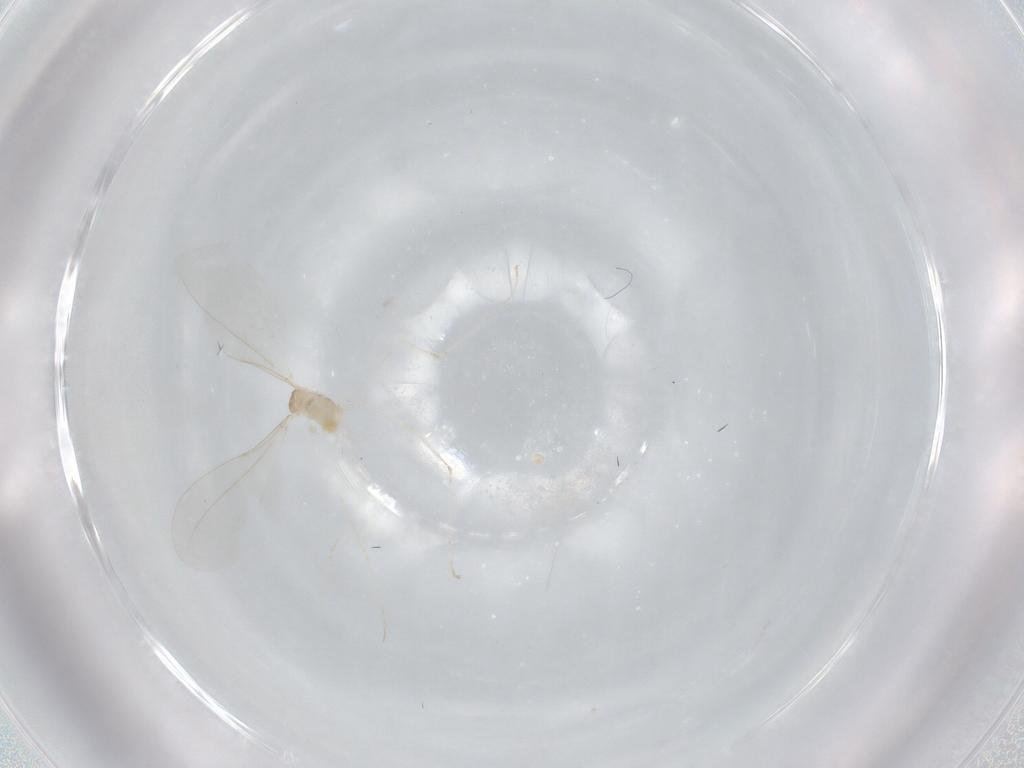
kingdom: Animalia
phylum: Arthropoda
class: Insecta
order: Diptera
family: Cecidomyiidae
